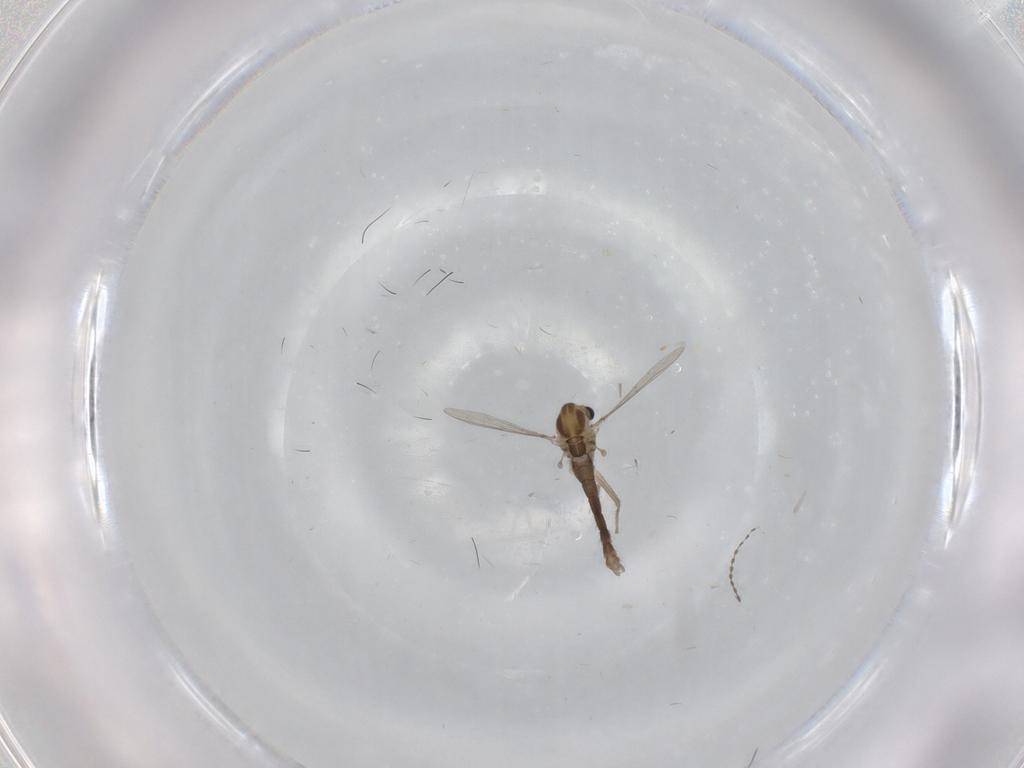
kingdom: Animalia
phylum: Arthropoda
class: Insecta
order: Diptera
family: Chironomidae
